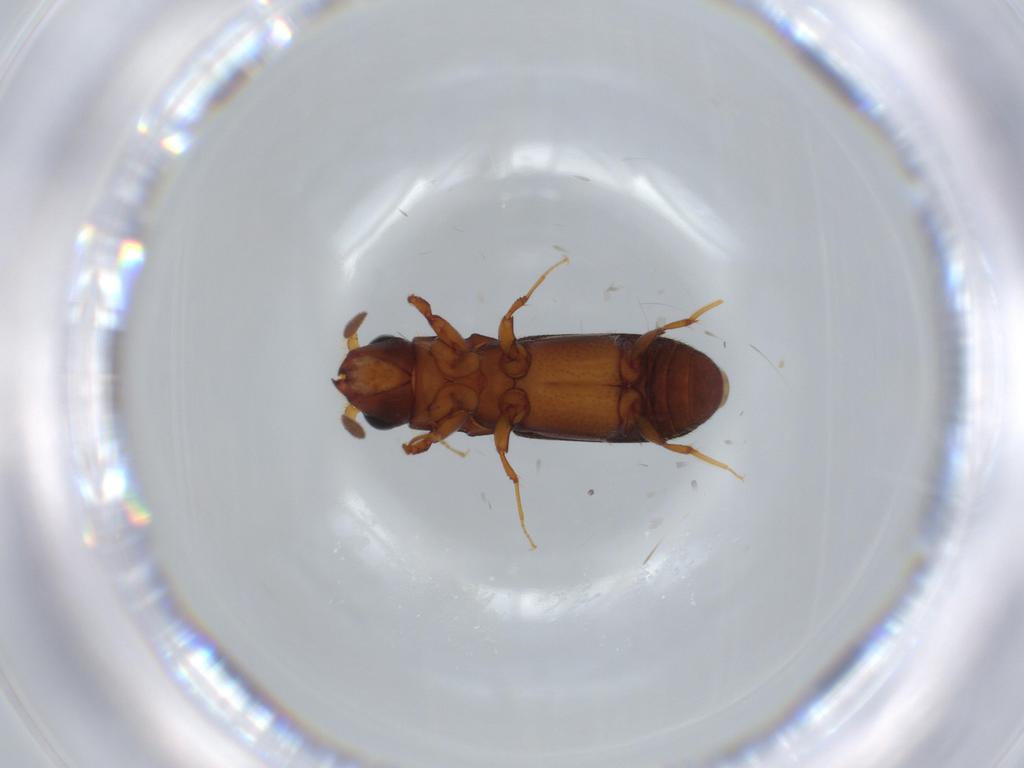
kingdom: Animalia
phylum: Arthropoda
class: Insecta
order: Coleoptera
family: Curculionidae
